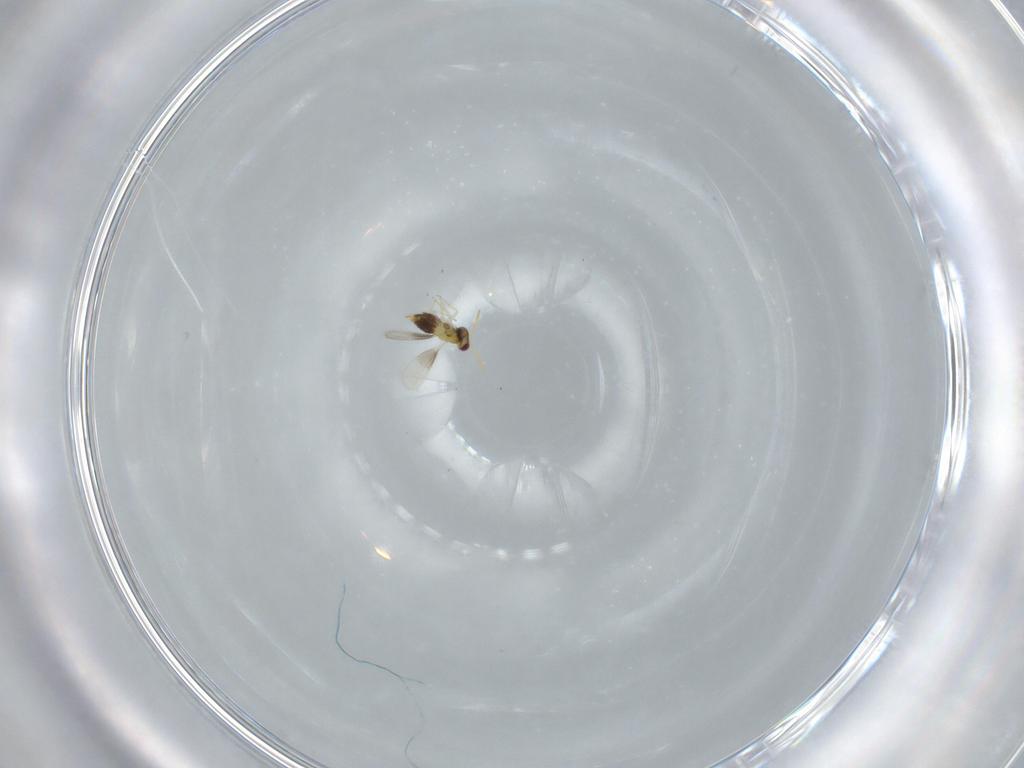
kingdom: Animalia
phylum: Arthropoda
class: Insecta
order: Hymenoptera
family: Aphelinidae
